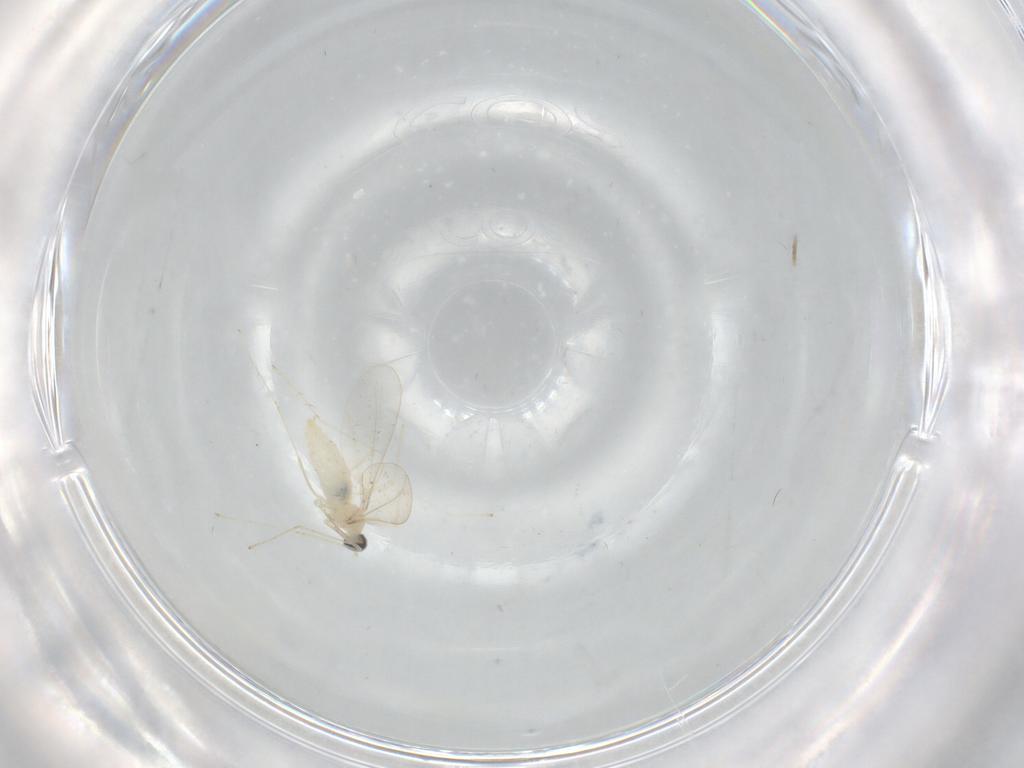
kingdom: Animalia
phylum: Arthropoda
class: Insecta
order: Diptera
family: Cecidomyiidae
